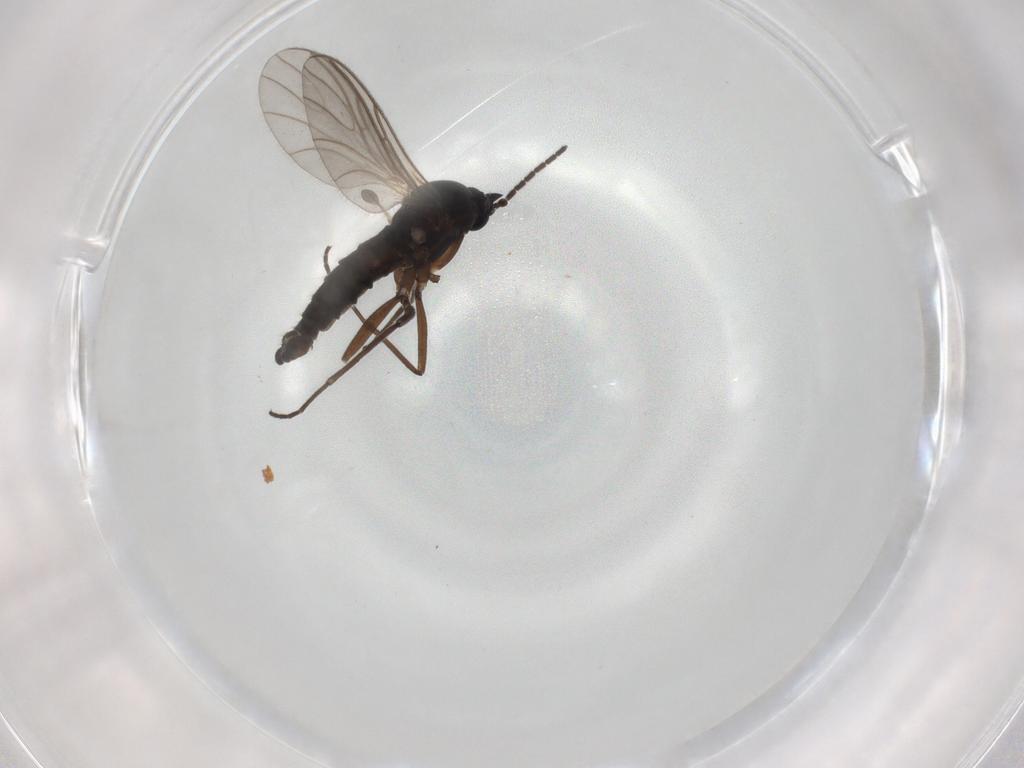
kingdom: Animalia
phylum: Arthropoda
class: Insecta
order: Diptera
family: Sciaridae
